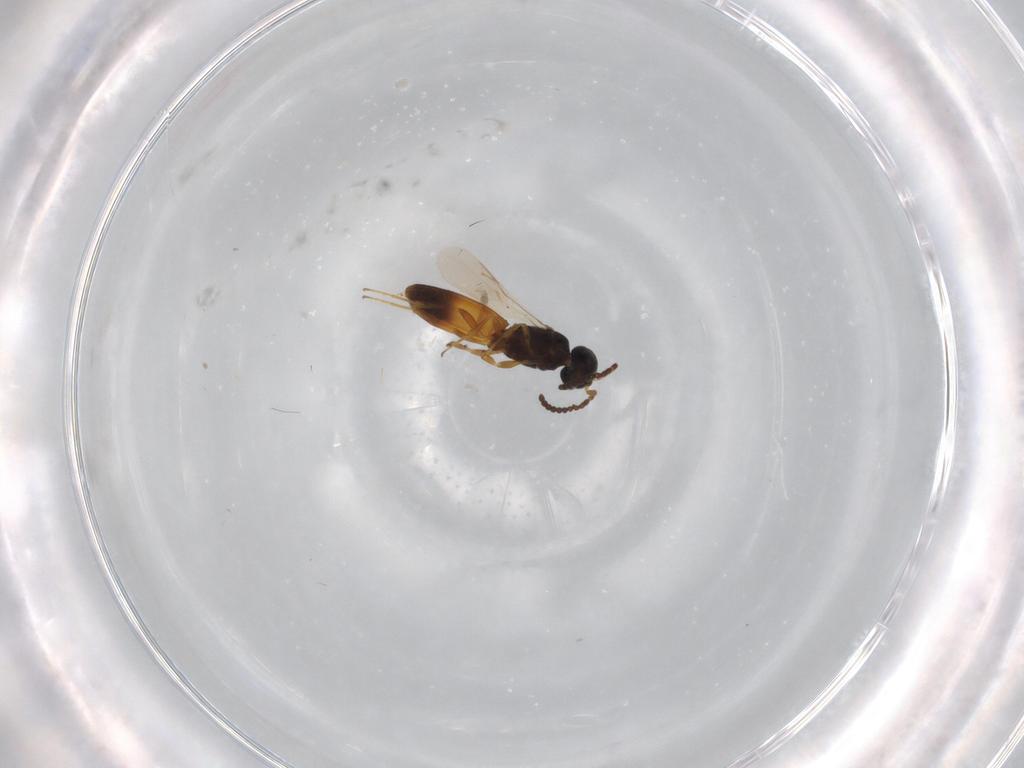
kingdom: Animalia
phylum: Arthropoda
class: Insecta
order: Hymenoptera
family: Scelionidae
